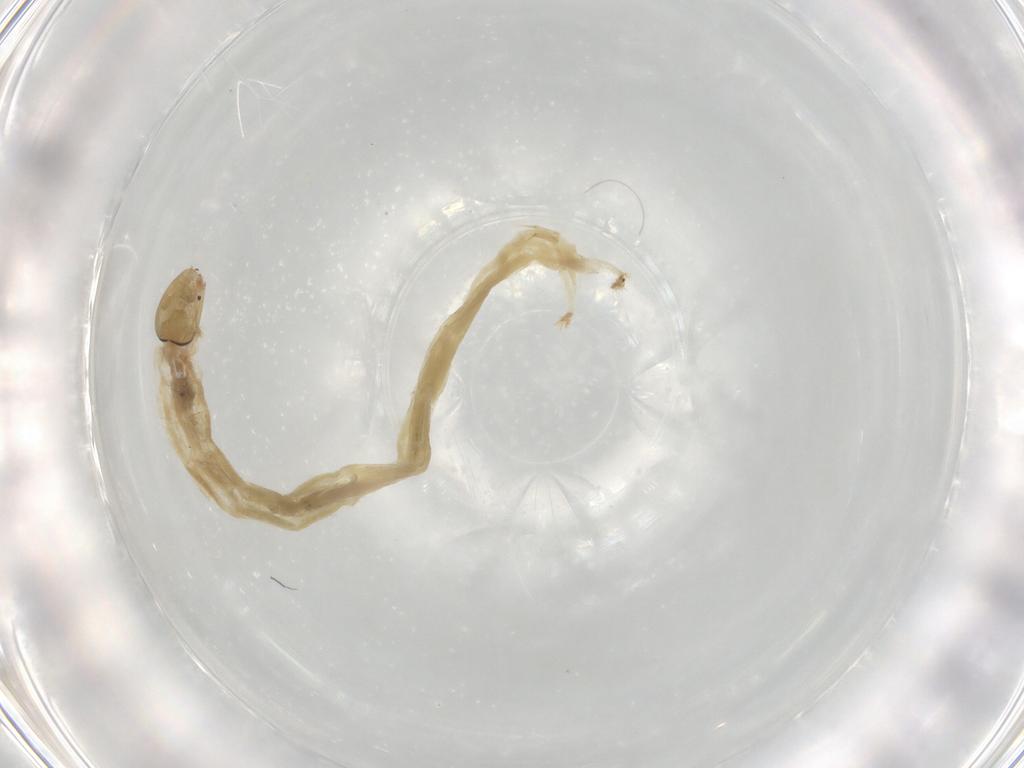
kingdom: Animalia
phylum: Arthropoda
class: Insecta
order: Diptera
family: Chironomidae
